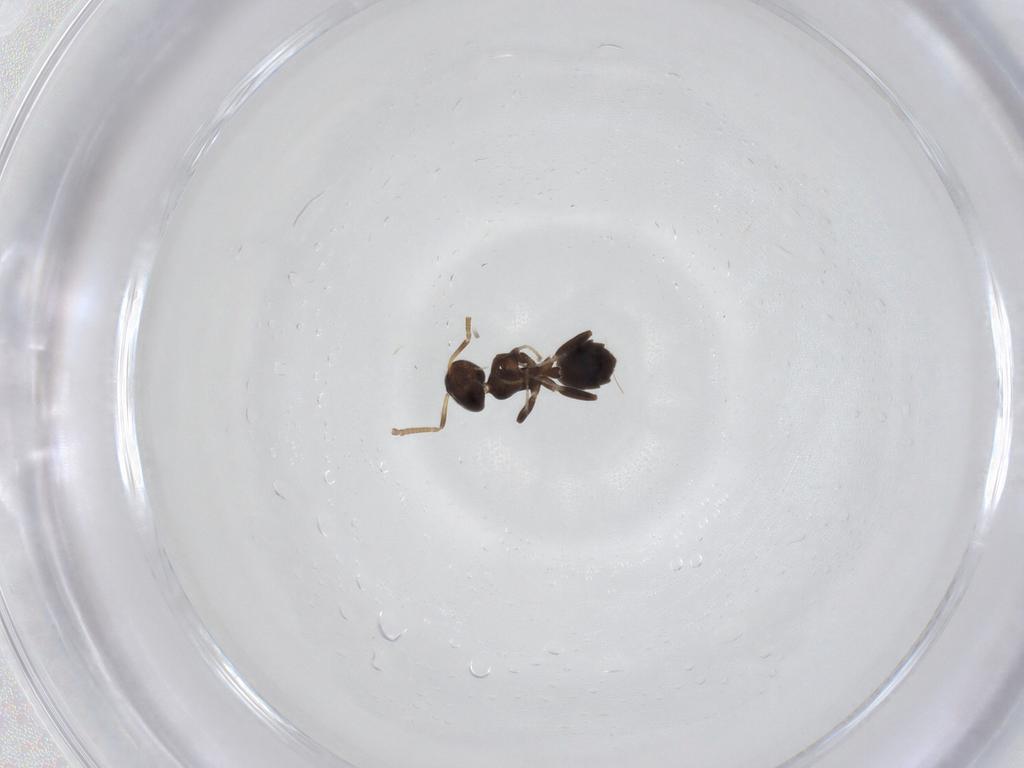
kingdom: Animalia
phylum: Arthropoda
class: Insecta
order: Hymenoptera
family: Formicidae
